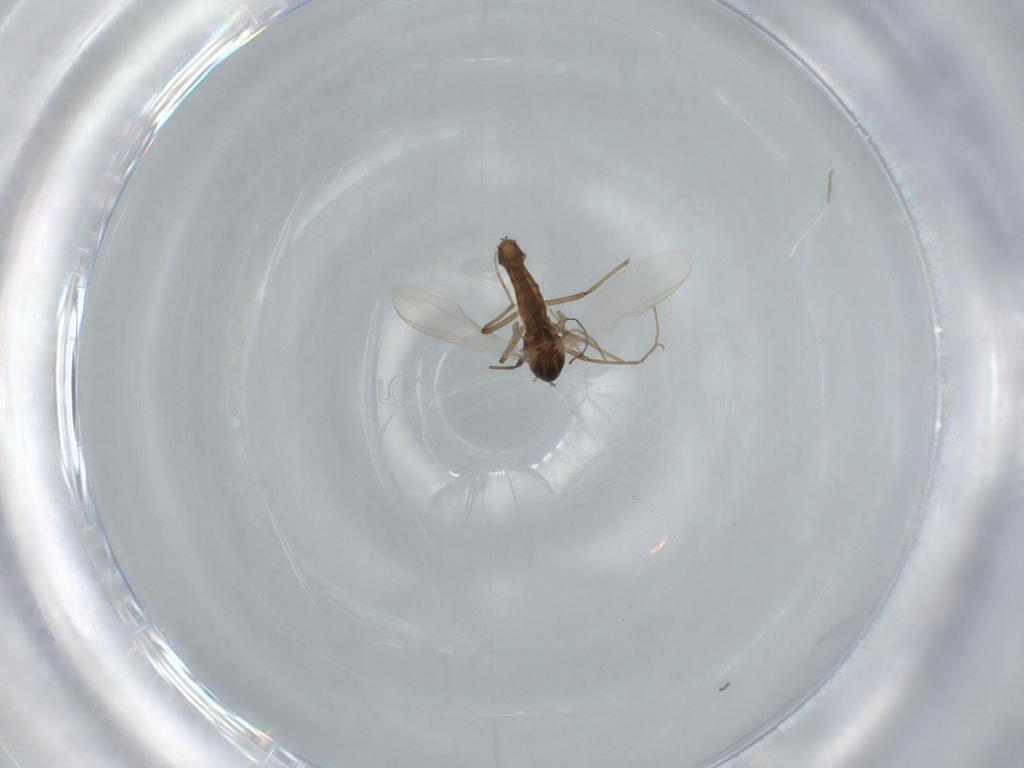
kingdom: Animalia
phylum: Arthropoda
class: Insecta
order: Diptera
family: Chironomidae
